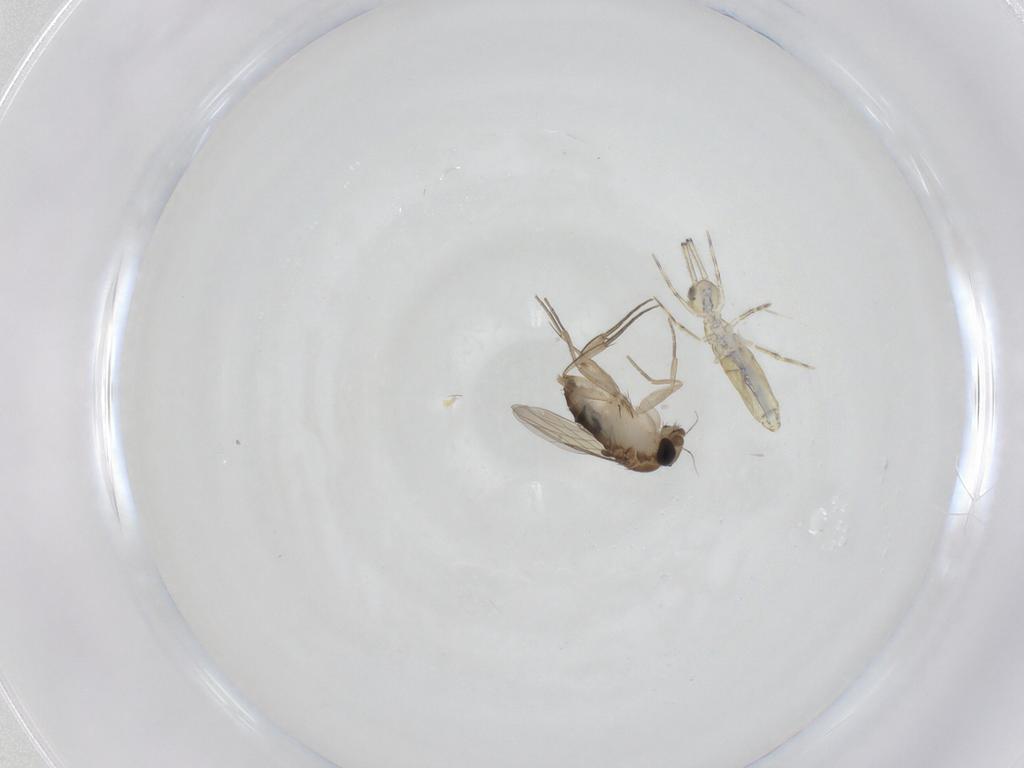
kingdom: Animalia
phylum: Arthropoda
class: Insecta
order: Diptera
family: Phoridae
